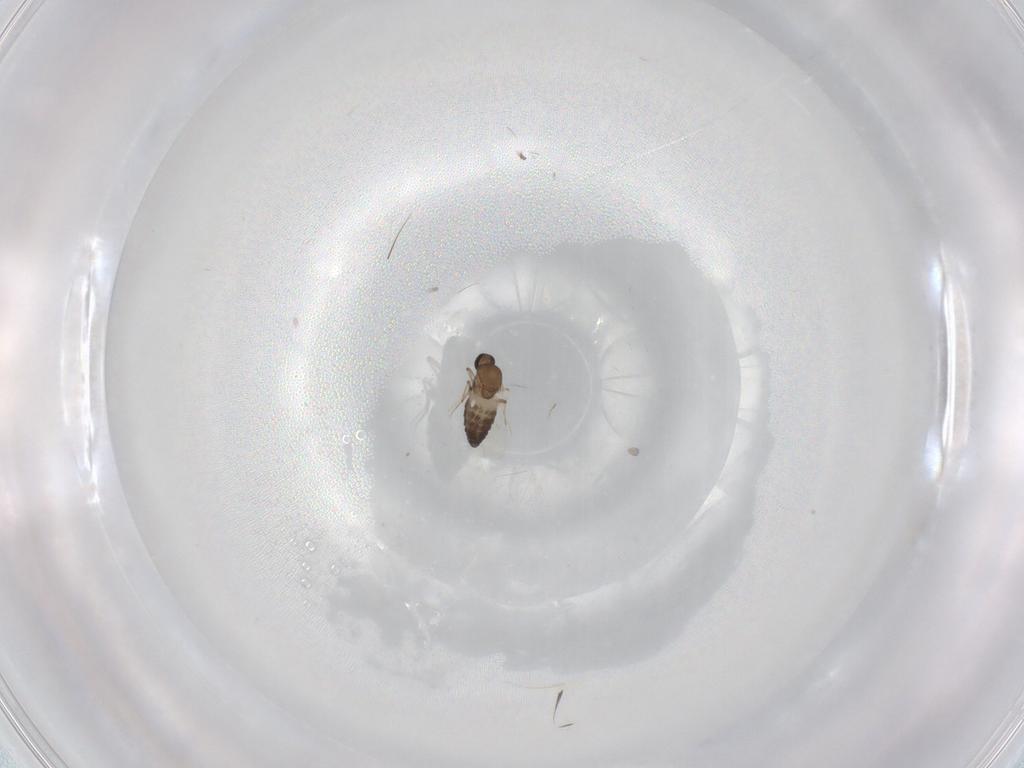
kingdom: Animalia
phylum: Arthropoda
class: Insecta
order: Diptera
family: Ceratopogonidae
